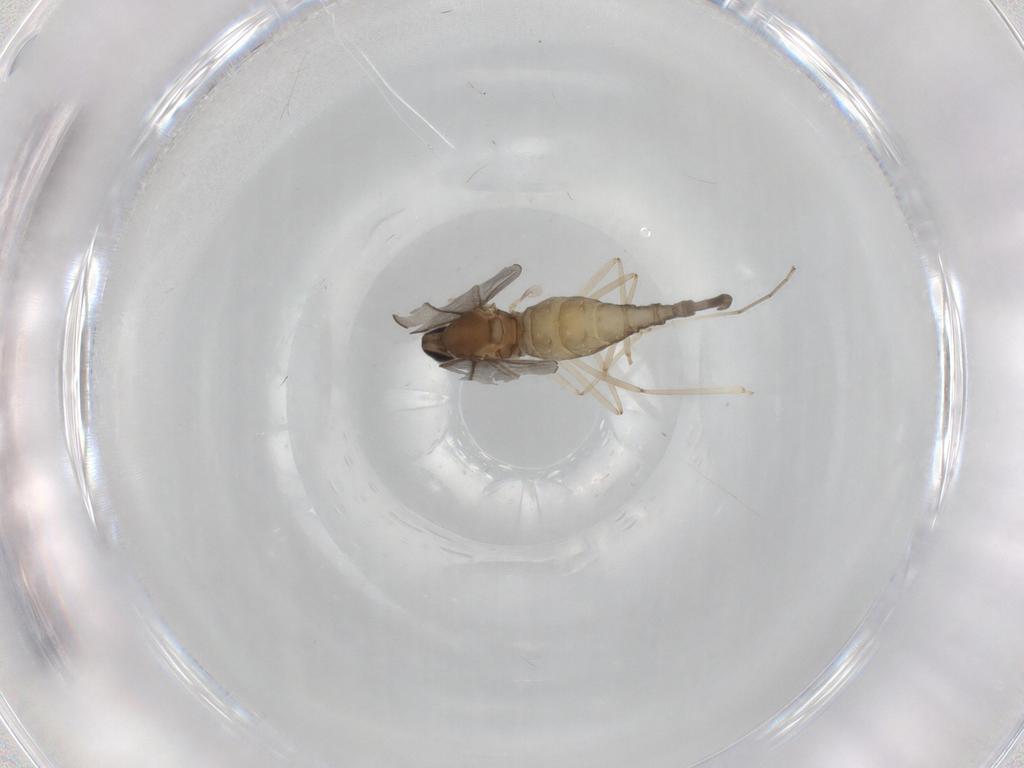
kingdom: Animalia
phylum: Arthropoda
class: Insecta
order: Diptera
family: Cecidomyiidae
